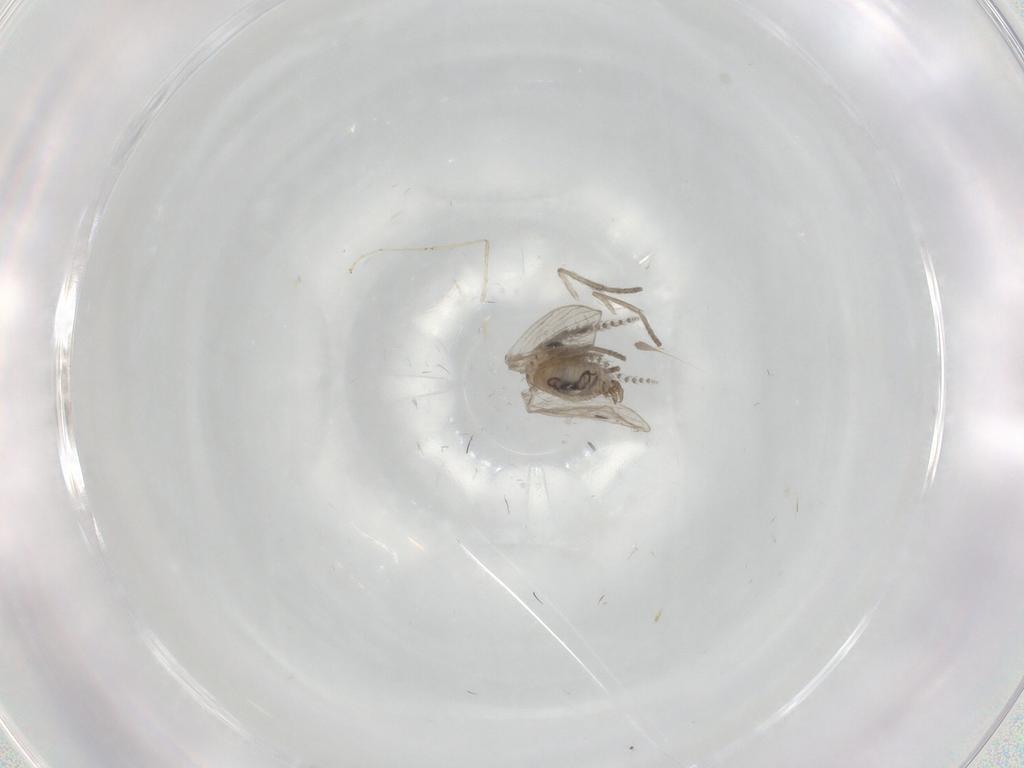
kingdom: Animalia
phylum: Arthropoda
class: Insecta
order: Diptera
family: Psychodidae
